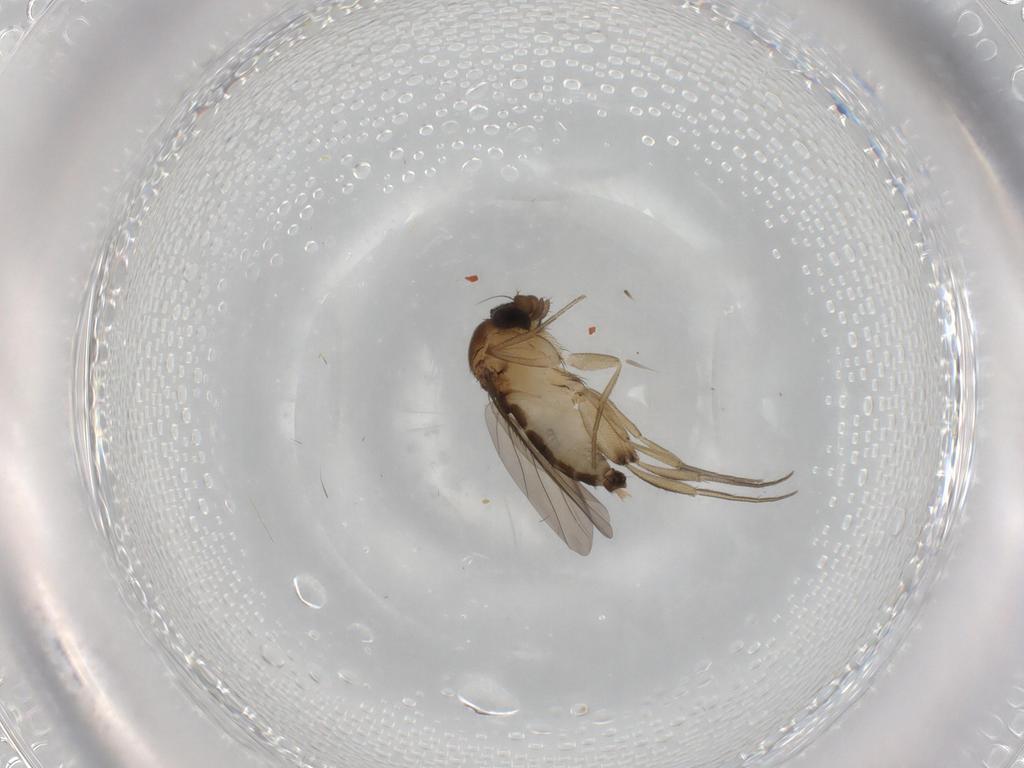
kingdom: Animalia
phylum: Arthropoda
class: Insecta
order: Diptera
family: Phoridae
